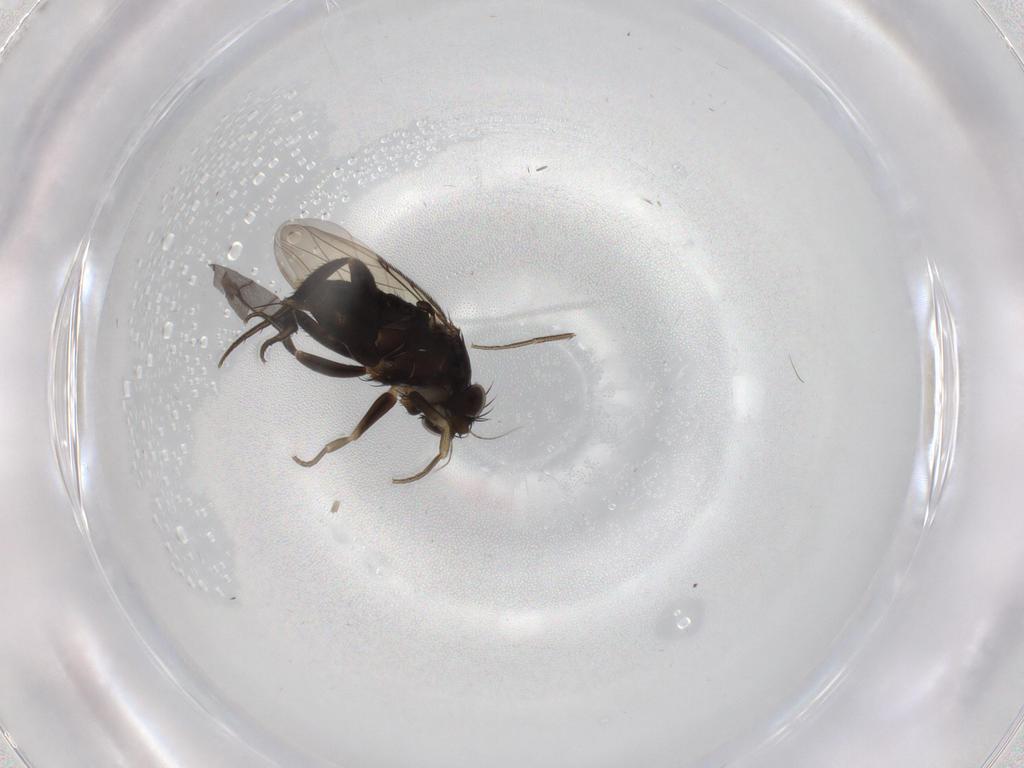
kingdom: Animalia
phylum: Arthropoda
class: Insecta
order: Diptera
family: Phoridae
